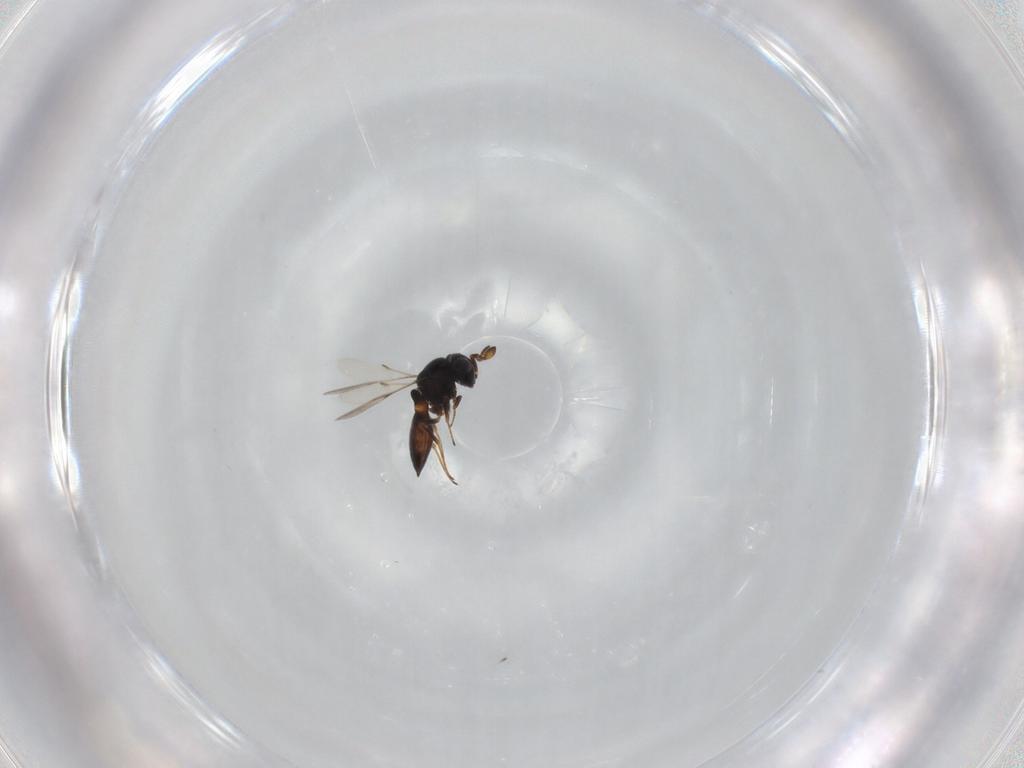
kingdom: Animalia
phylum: Arthropoda
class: Insecta
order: Hymenoptera
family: Scelionidae
